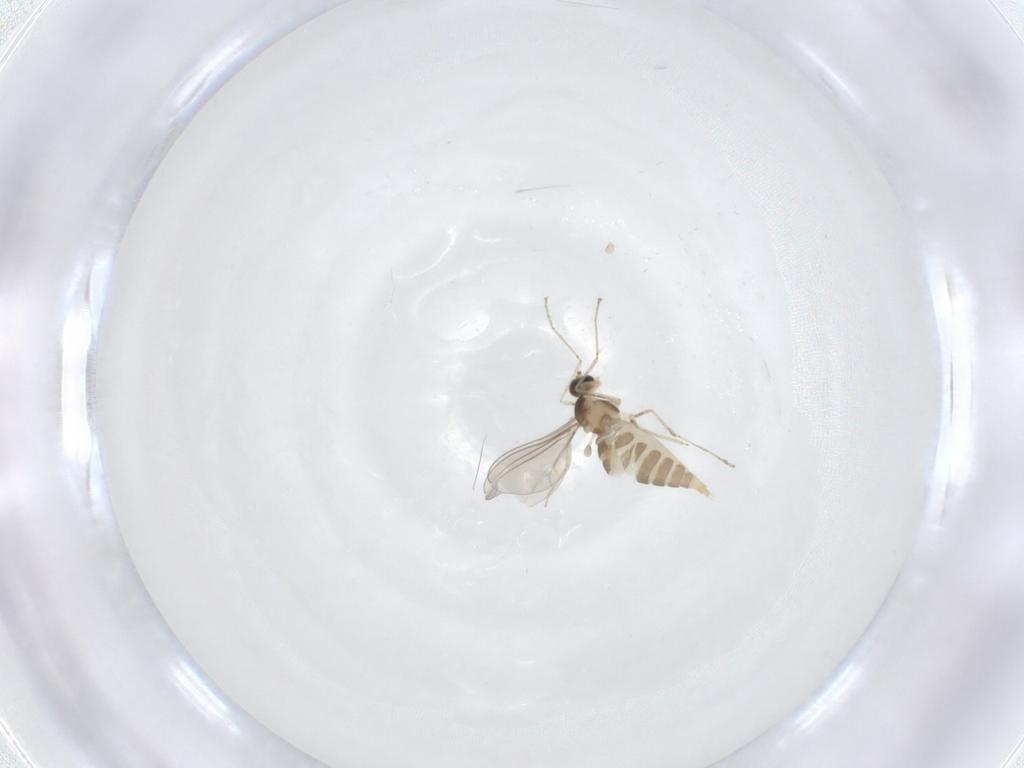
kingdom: Animalia
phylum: Arthropoda
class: Insecta
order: Diptera
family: Cecidomyiidae
